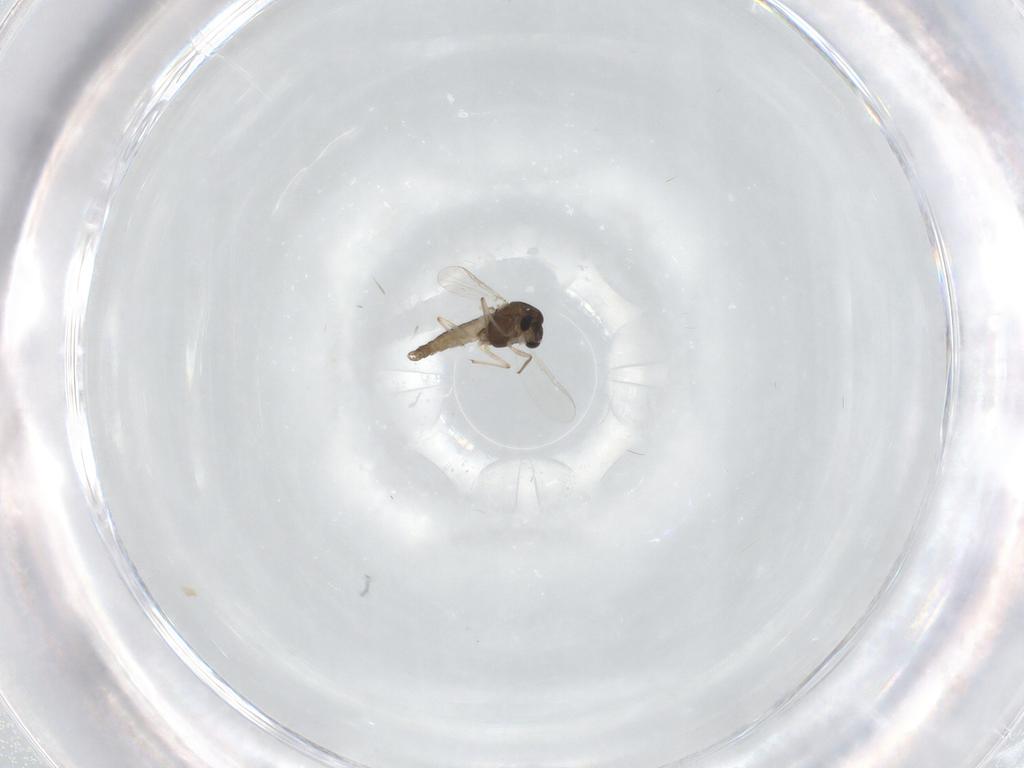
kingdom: Animalia
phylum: Arthropoda
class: Insecta
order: Diptera
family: Chironomidae
